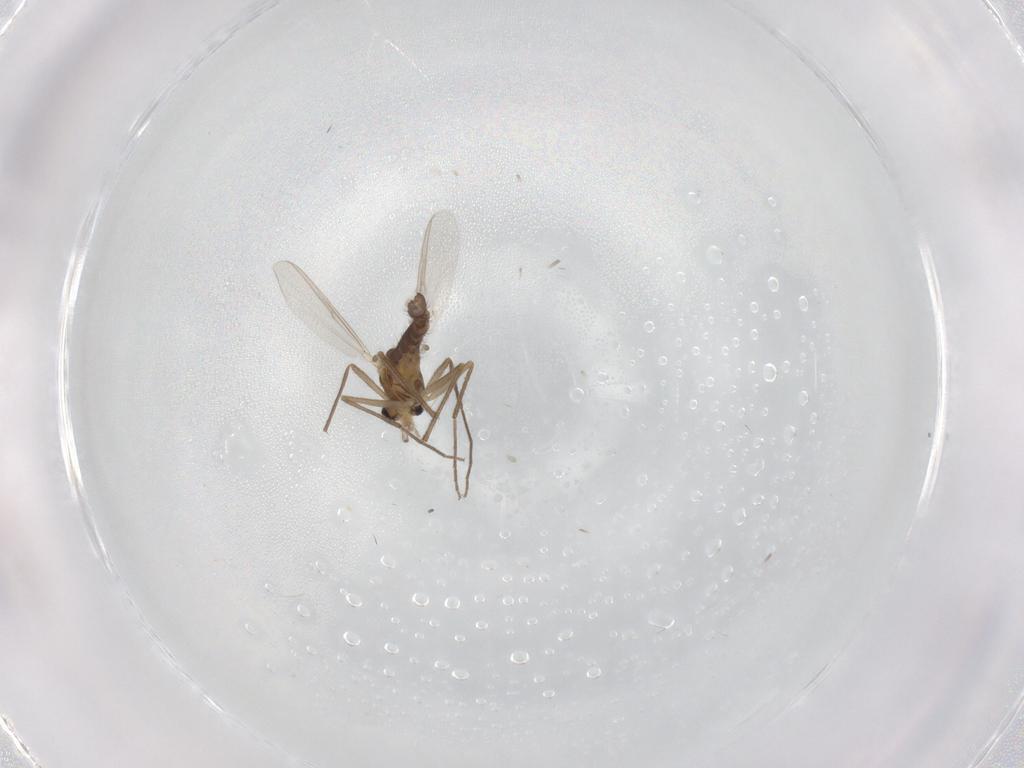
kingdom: Animalia
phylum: Arthropoda
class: Insecta
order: Diptera
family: Chironomidae
